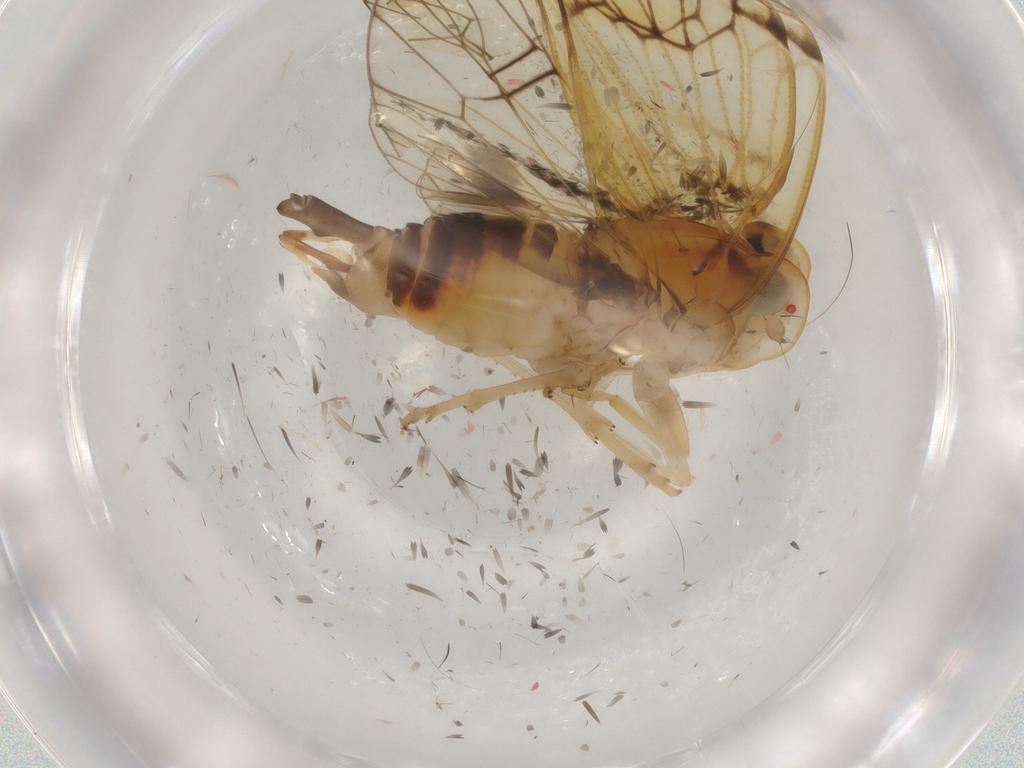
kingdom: Animalia
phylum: Arthropoda
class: Insecta
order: Hemiptera
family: Cixiidae
